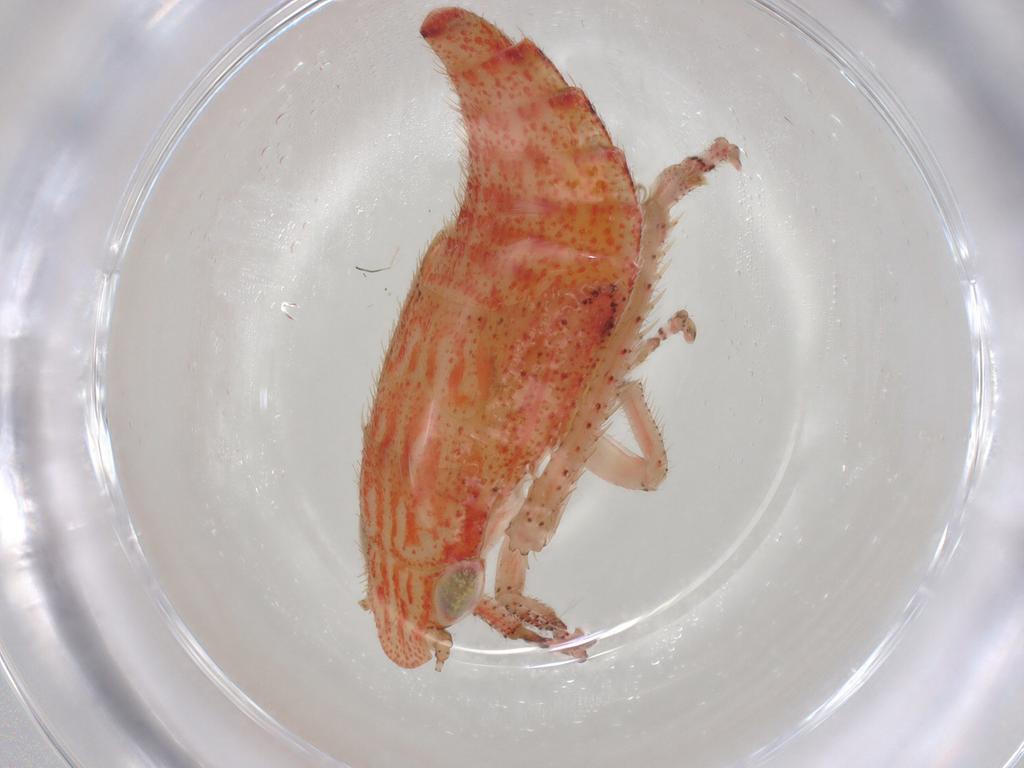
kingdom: Animalia
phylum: Arthropoda
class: Insecta
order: Hemiptera
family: Cicadellidae
